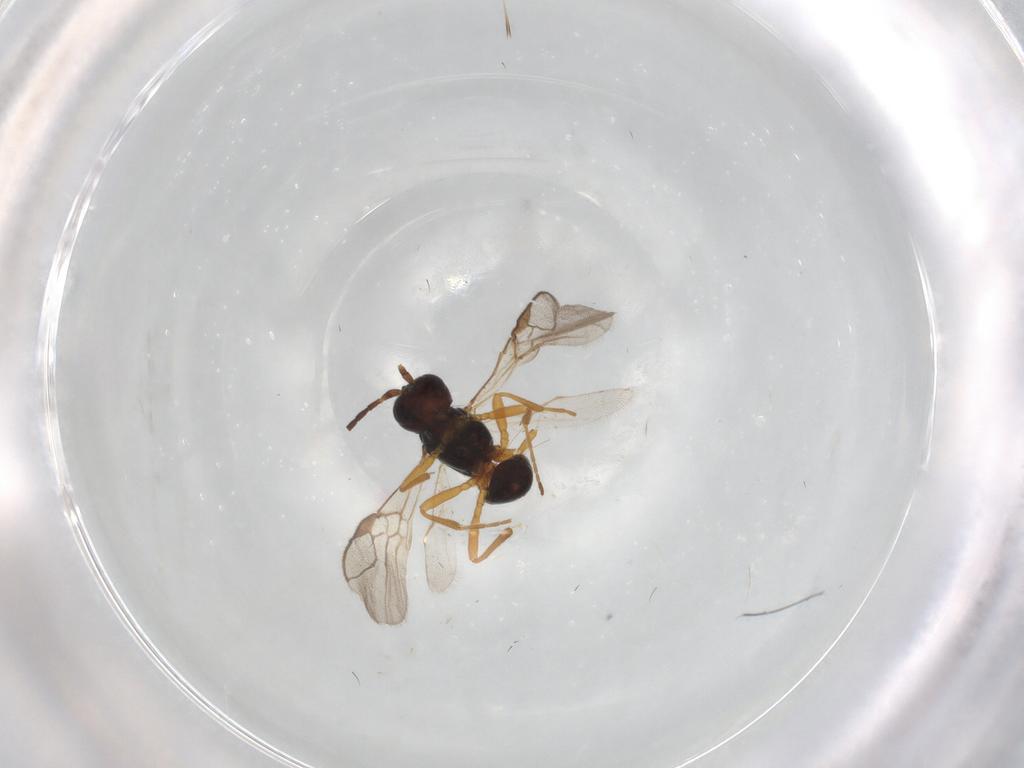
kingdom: Animalia
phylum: Arthropoda
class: Insecta
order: Hymenoptera
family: Braconidae
